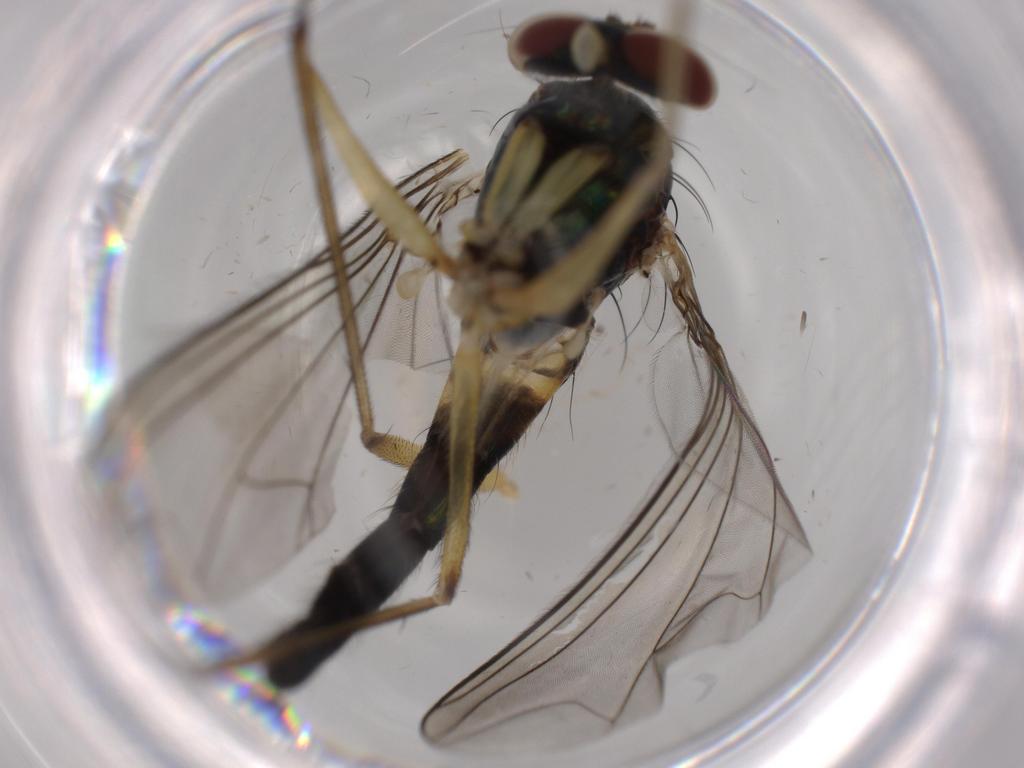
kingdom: Animalia
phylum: Arthropoda
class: Insecta
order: Diptera
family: Sciaridae
